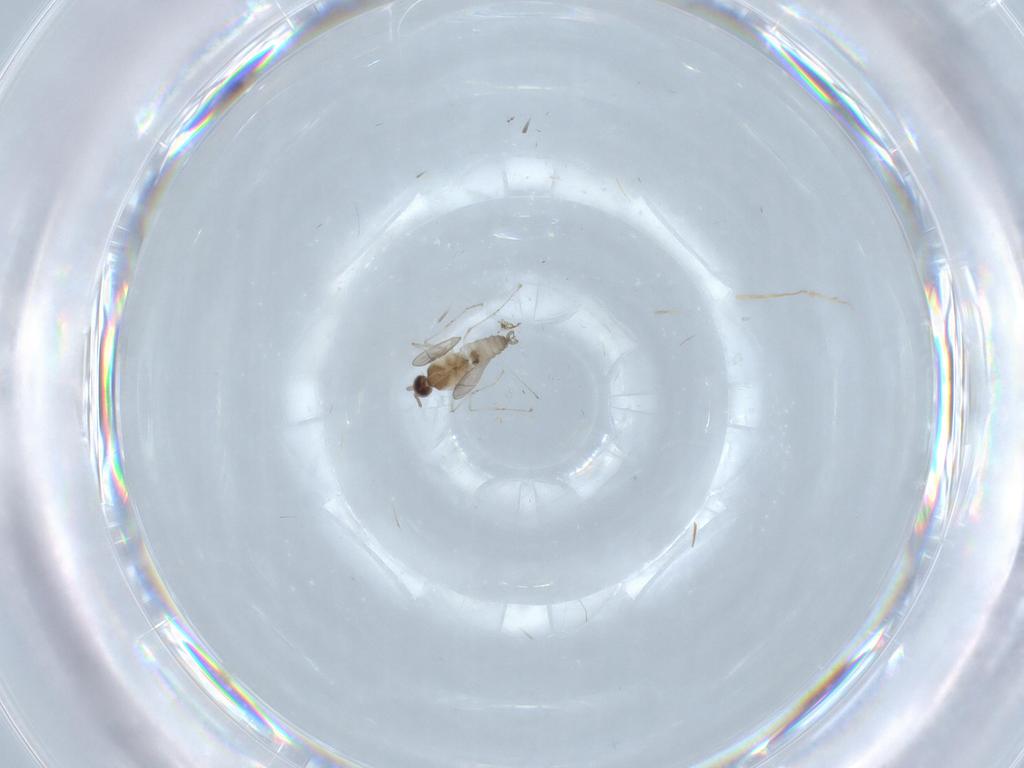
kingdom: Animalia
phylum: Arthropoda
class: Insecta
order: Diptera
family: Cecidomyiidae
